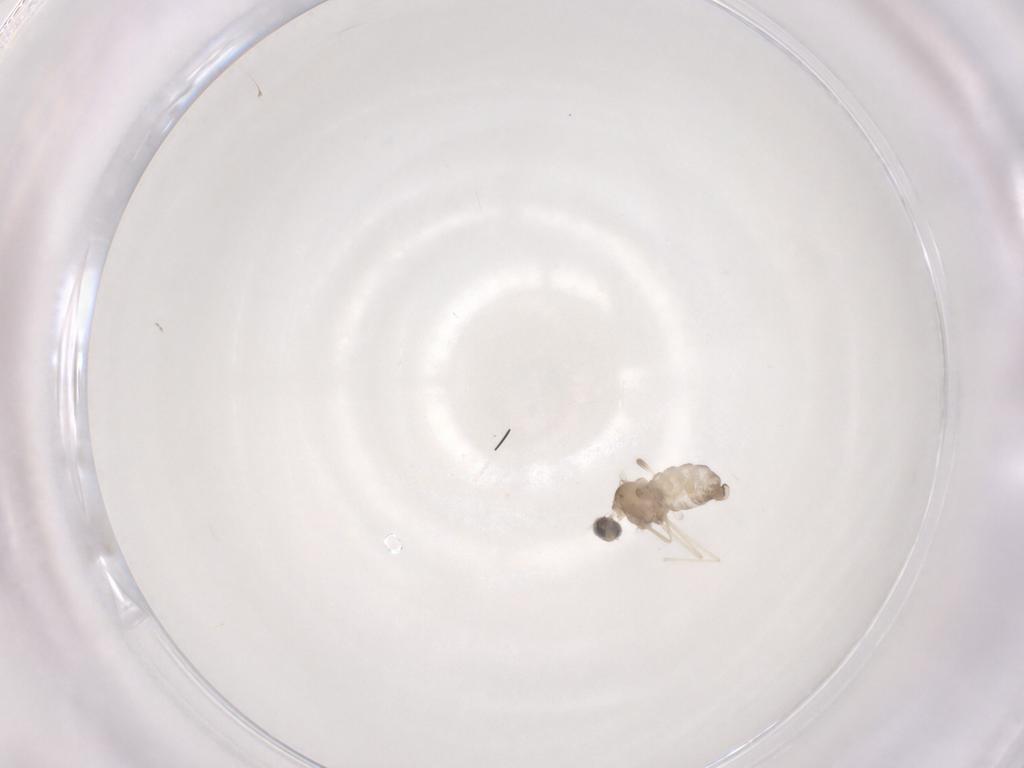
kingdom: Animalia
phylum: Arthropoda
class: Insecta
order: Diptera
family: Cecidomyiidae
